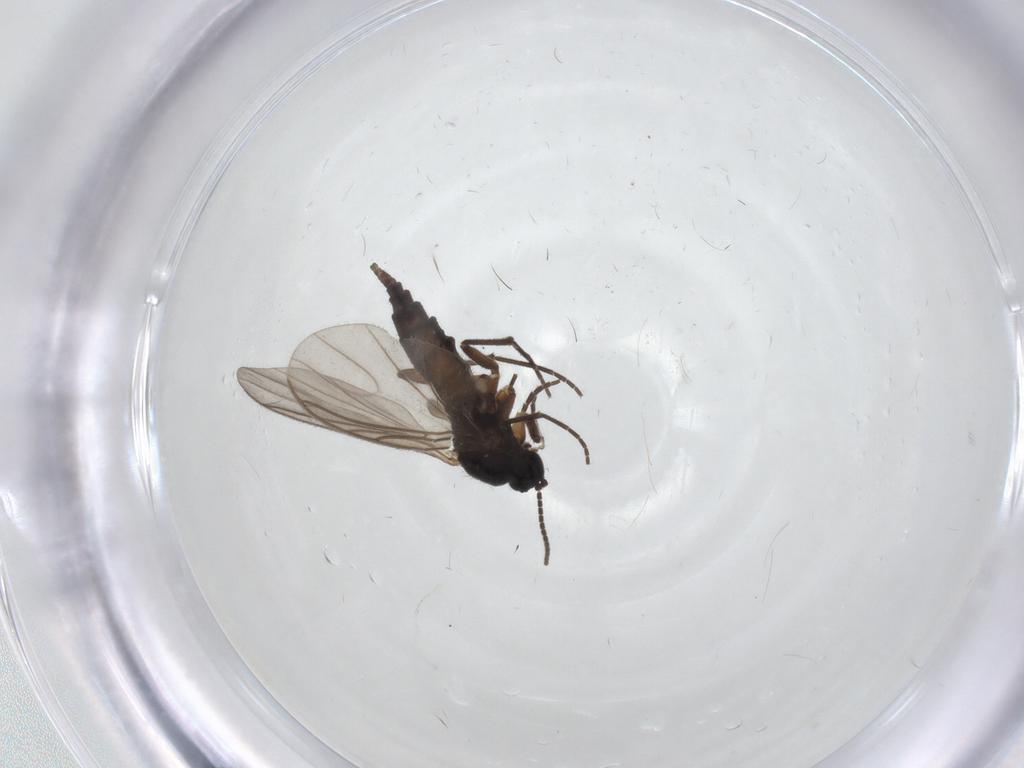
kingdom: Animalia
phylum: Arthropoda
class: Insecta
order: Diptera
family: Sciaridae
